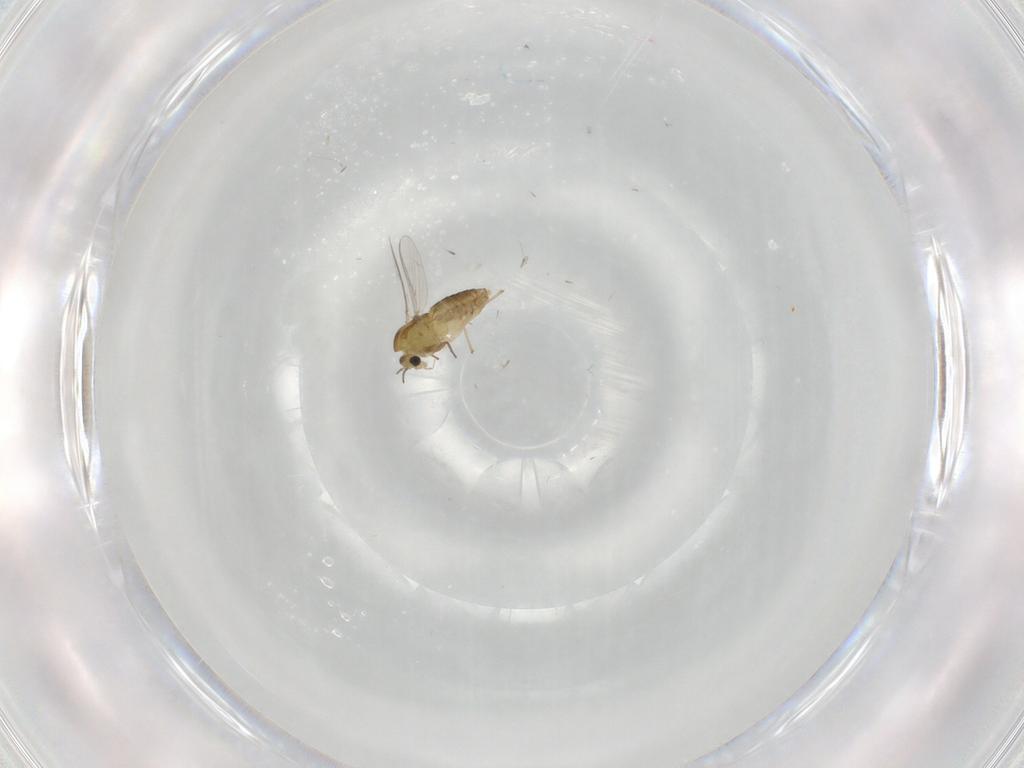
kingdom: Animalia
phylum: Arthropoda
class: Insecta
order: Diptera
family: Chironomidae
